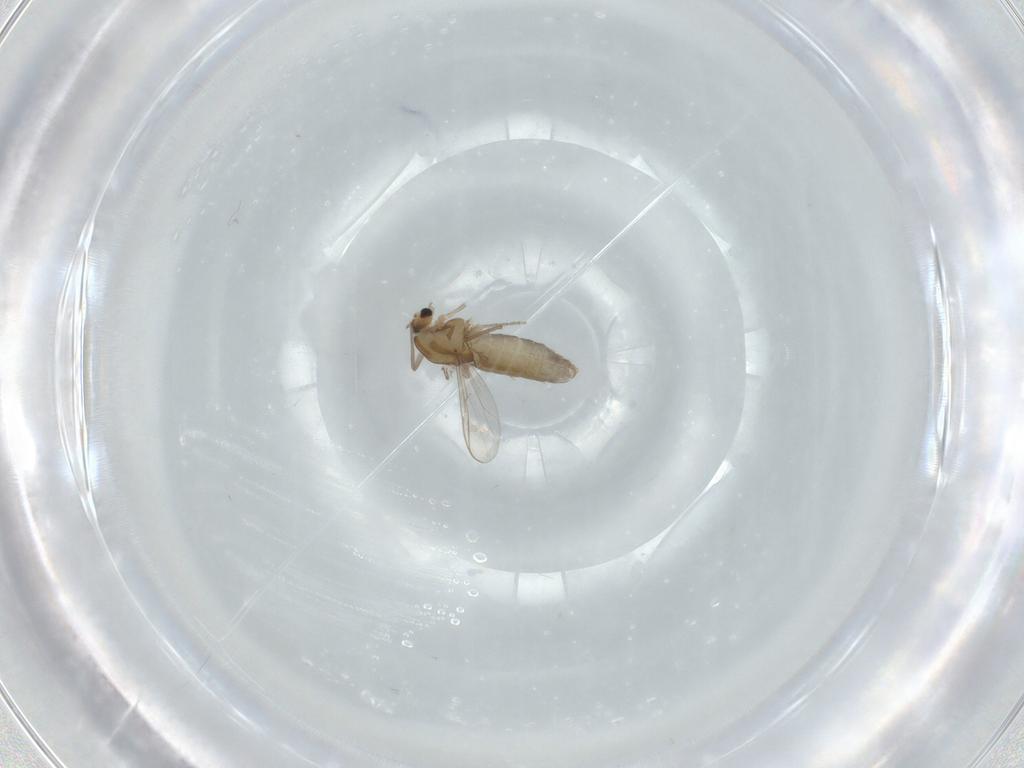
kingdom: Animalia
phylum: Arthropoda
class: Insecta
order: Diptera
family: Chironomidae
